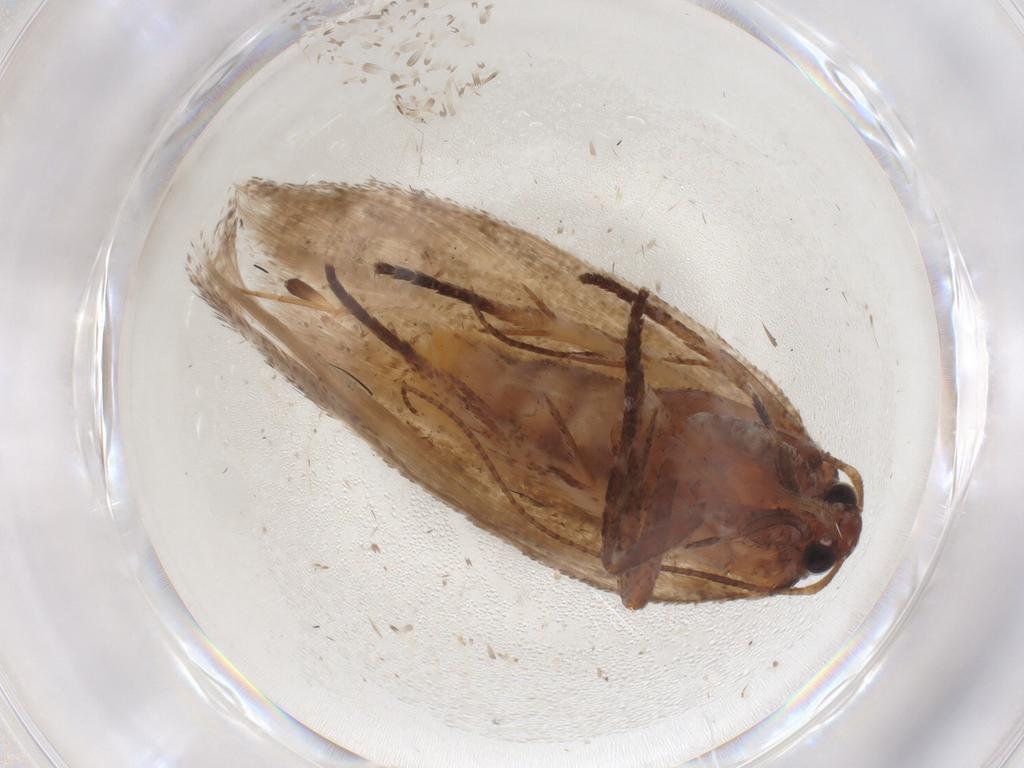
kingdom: Animalia
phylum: Arthropoda
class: Insecta
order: Lepidoptera
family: Cosmopterigidae
